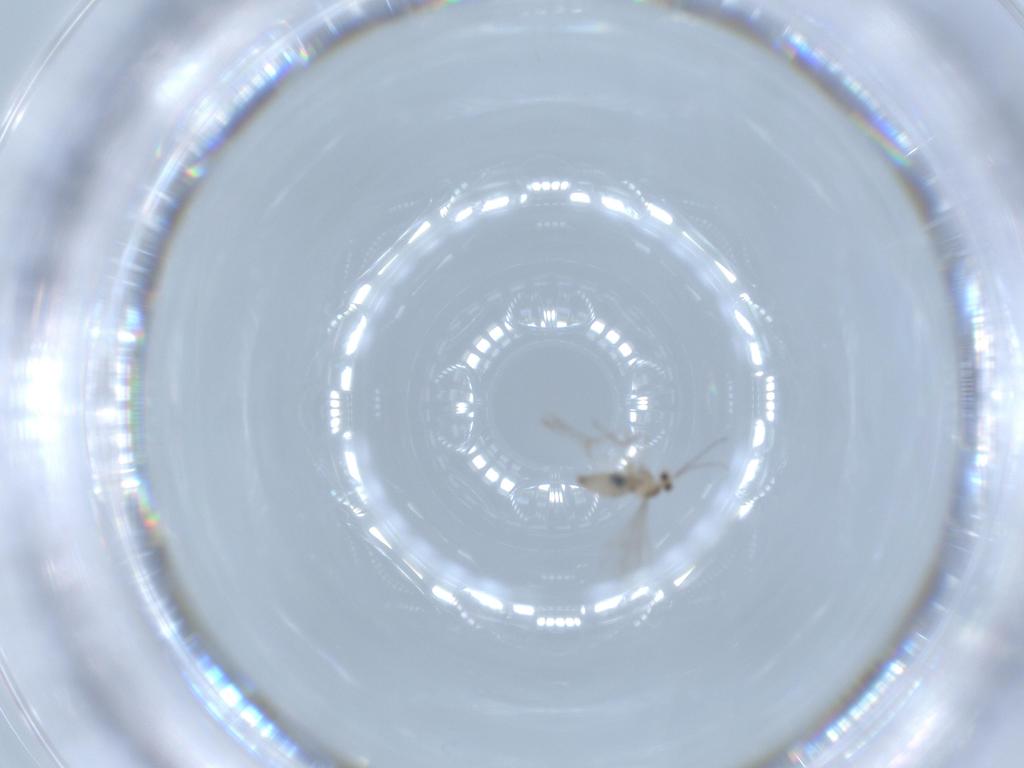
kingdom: Animalia
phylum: Arthropoda
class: Insecta
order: Diptera
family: Cecidomyiidae
